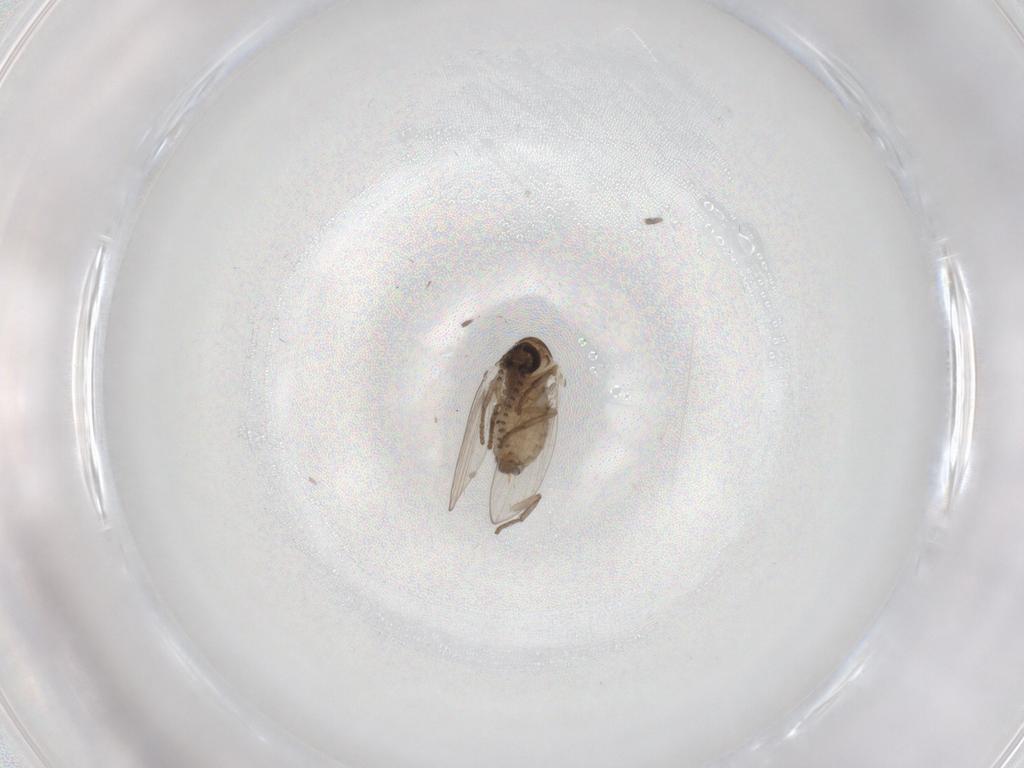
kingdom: Animalia
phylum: Arthropoda
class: Insecta
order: Diptera
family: Psychodidae
